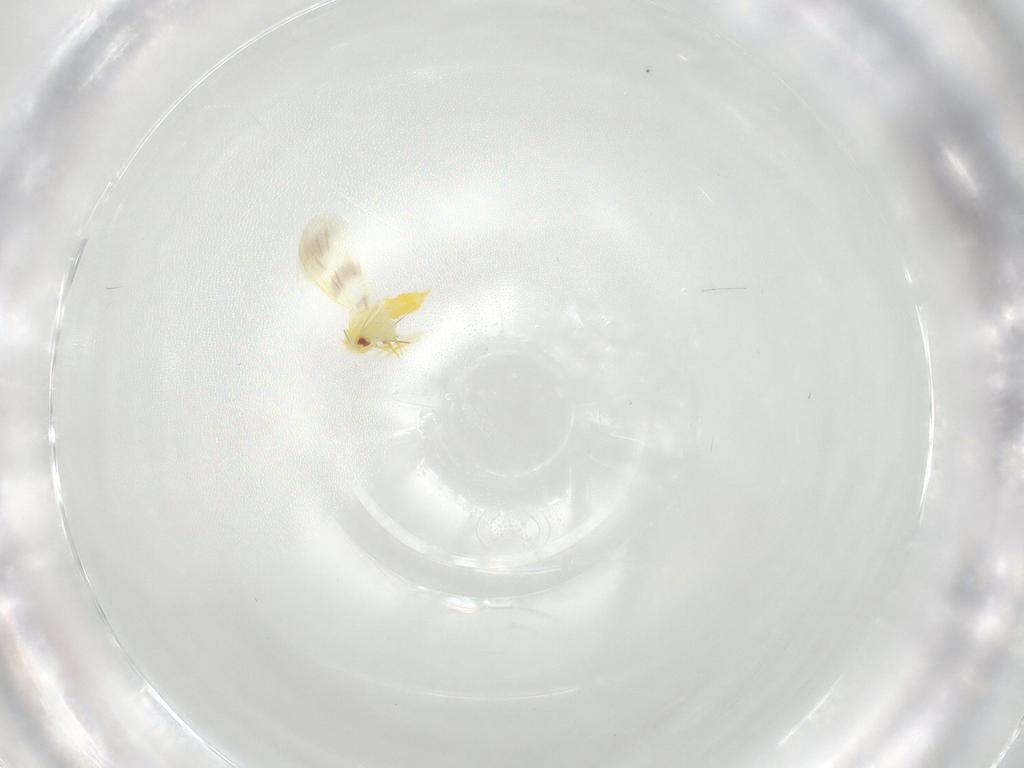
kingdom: Animalia
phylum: Arthropoda
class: Insecta
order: Hemiptera
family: Aleyrodidae
